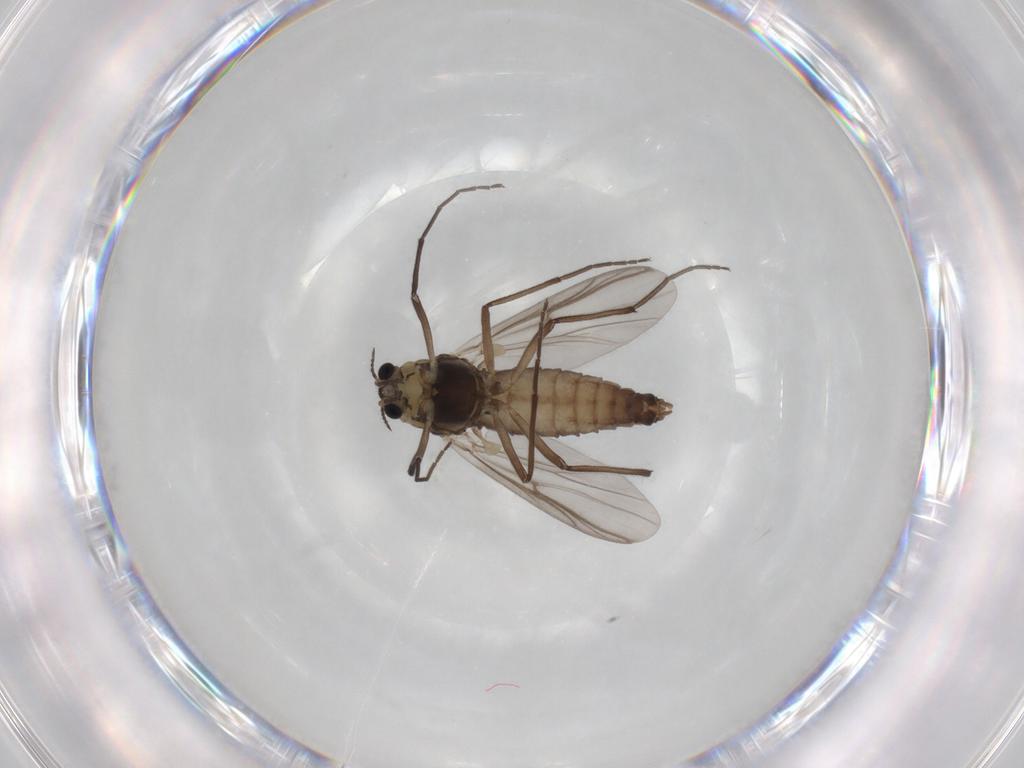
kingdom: Animalia
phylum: Arthropoda
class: Insecta
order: Diptera
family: Chironomidae
